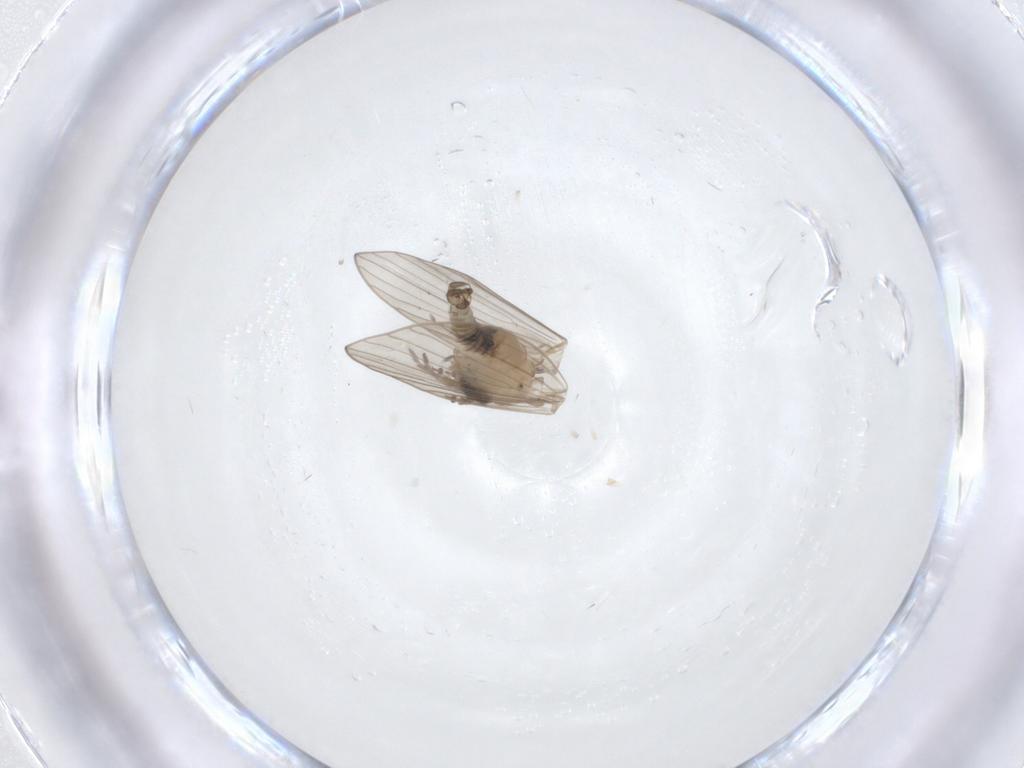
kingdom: Animalia
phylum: Arthropoda
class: Insecta
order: Diptera
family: Psychodidae
